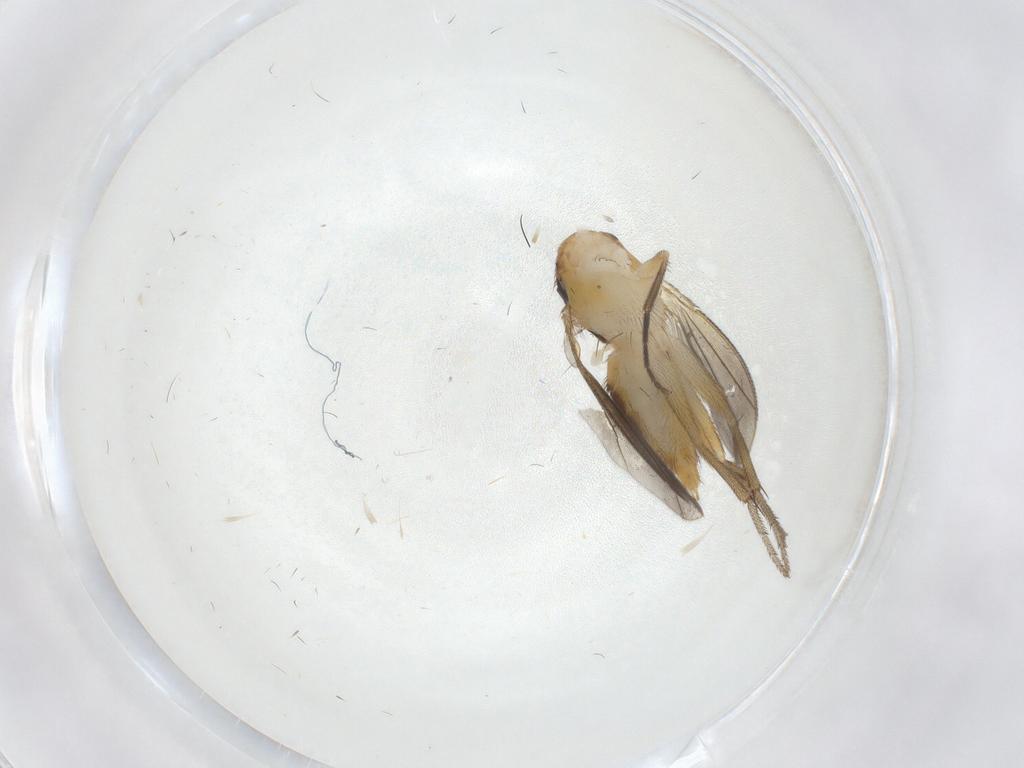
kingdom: Animalia
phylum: Arthropoda
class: Insecta
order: Diptera
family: Clusiidae
